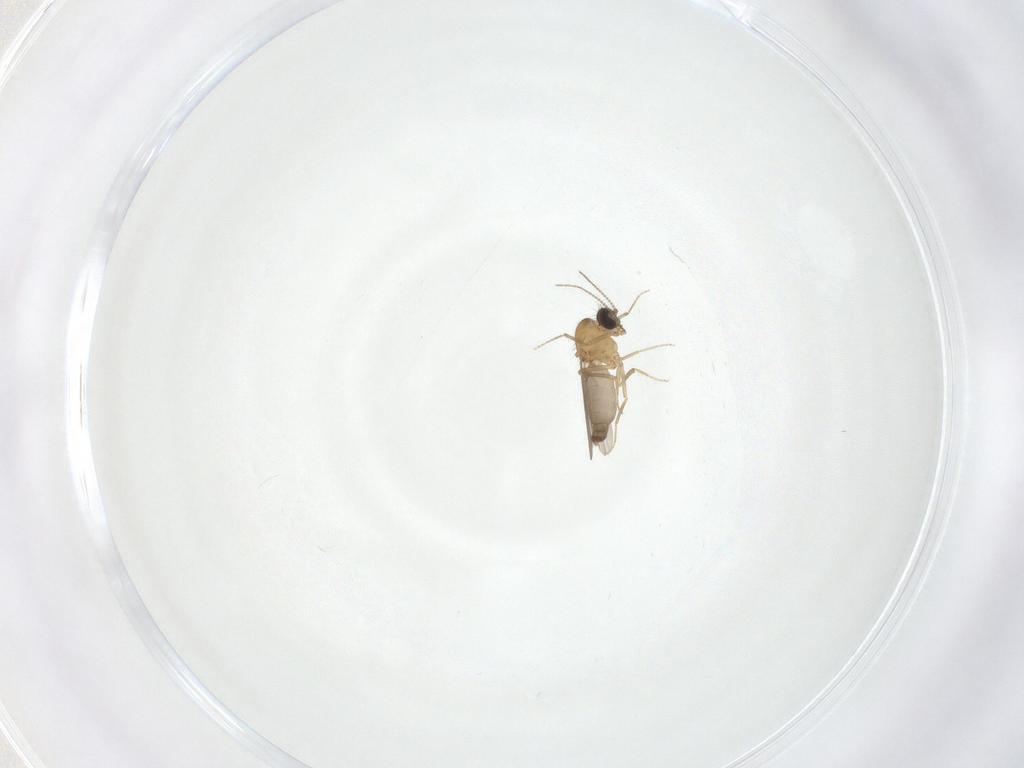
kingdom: Animalia
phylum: Arthropoda
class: Insecta
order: Diptera
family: Ceratopogonidae
